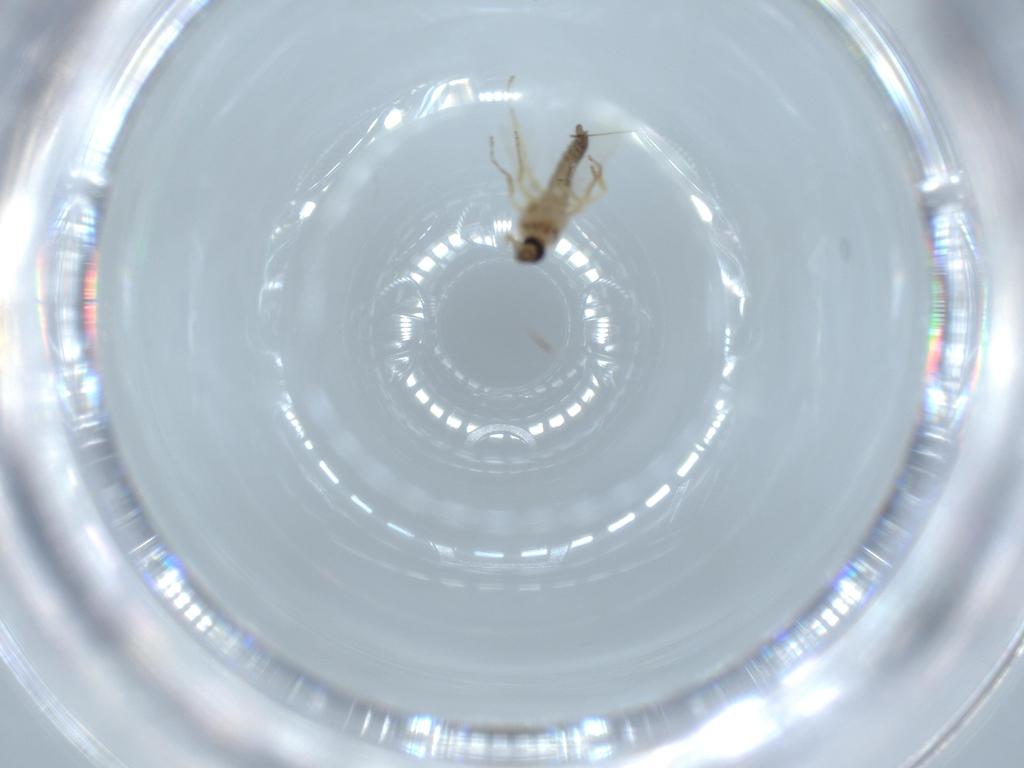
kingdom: Animalia
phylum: Arthropoda
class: Insecta
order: Diptera
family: Ceratopogonidae
